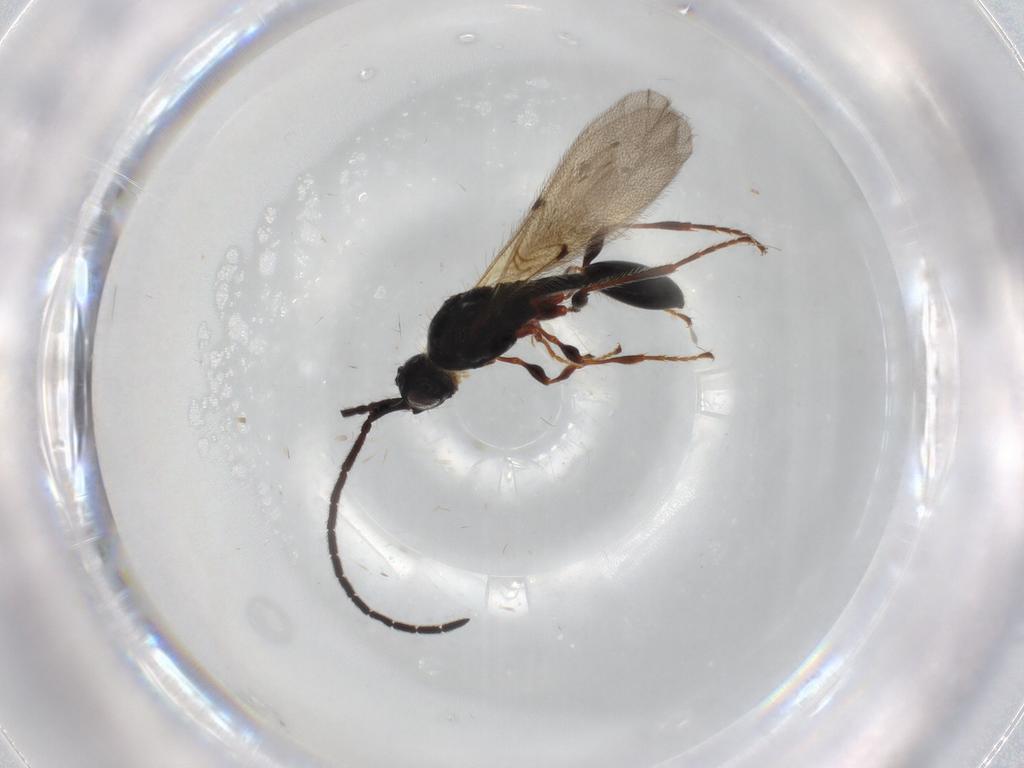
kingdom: Animalia
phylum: Arthropoda
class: Insecta
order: Hymenoptera
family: Diapriidae
